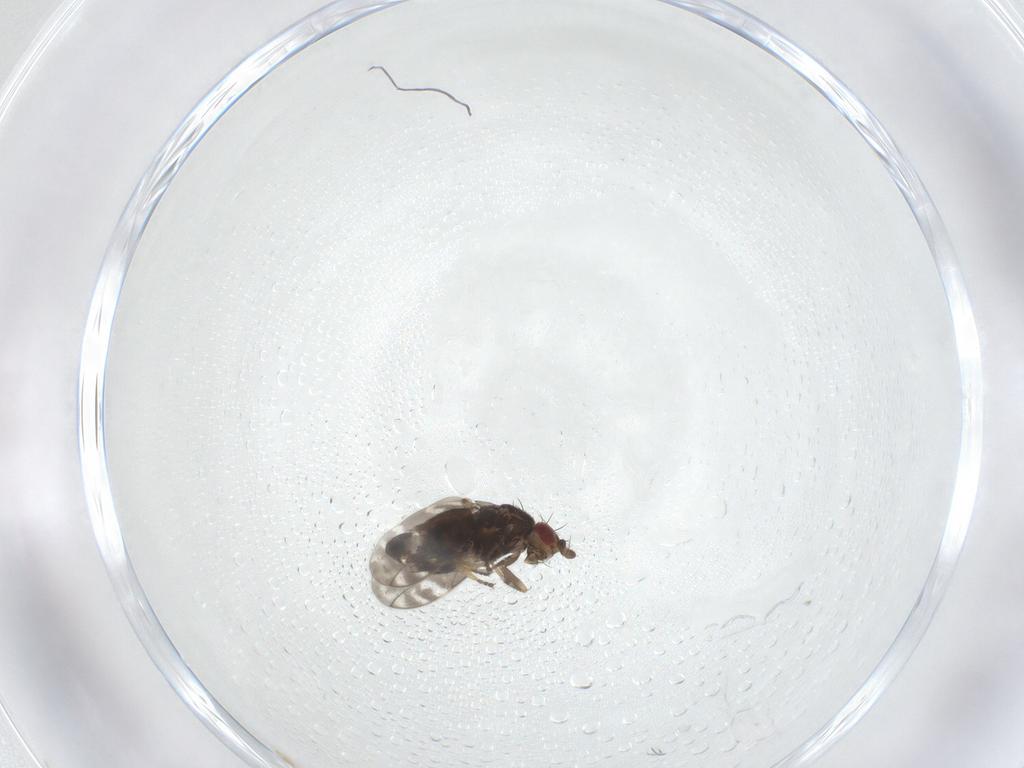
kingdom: Animalia
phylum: Arthropoda
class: Insecta
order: Diptera
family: Sphaeroceridae
